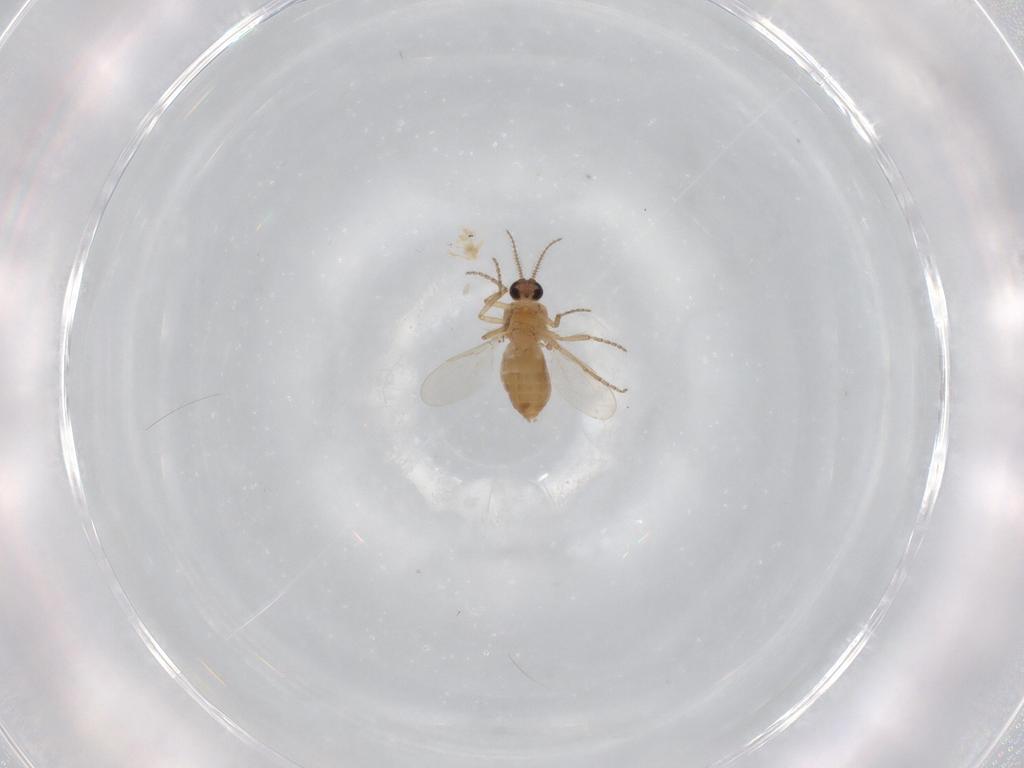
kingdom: Animalia
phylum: Arthropoda
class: Insecta
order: Diptera
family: Ceratopogonidae
